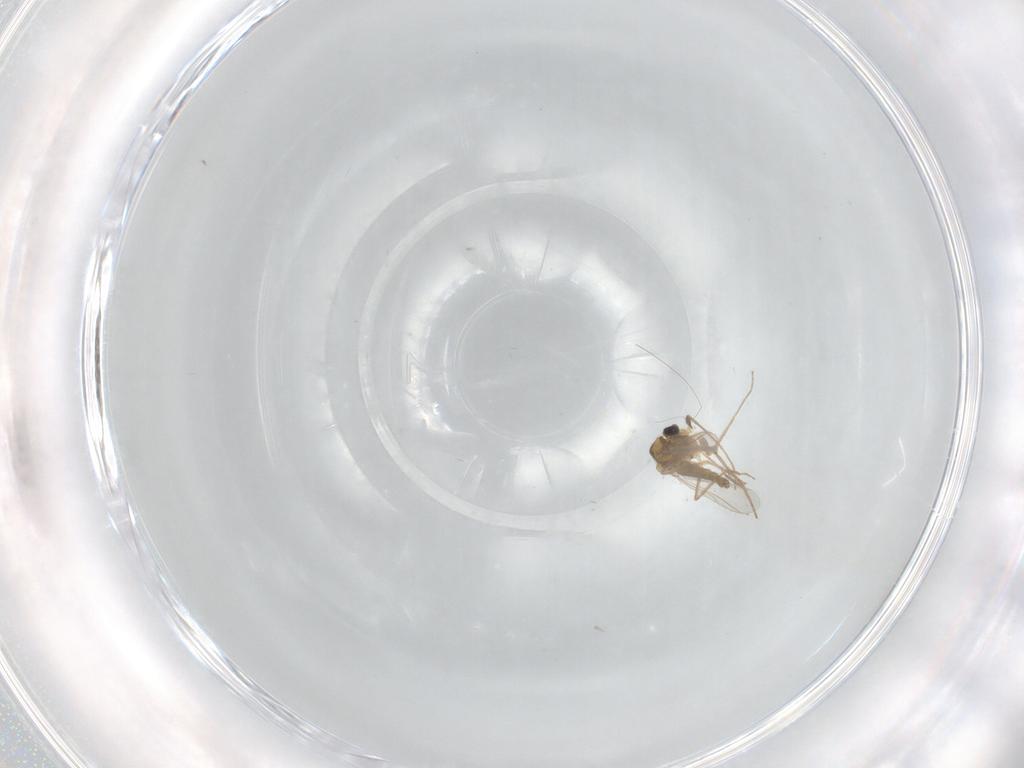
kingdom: Animalia
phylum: Arthropoda
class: Insecta
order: Diptera
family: Chironomidae
